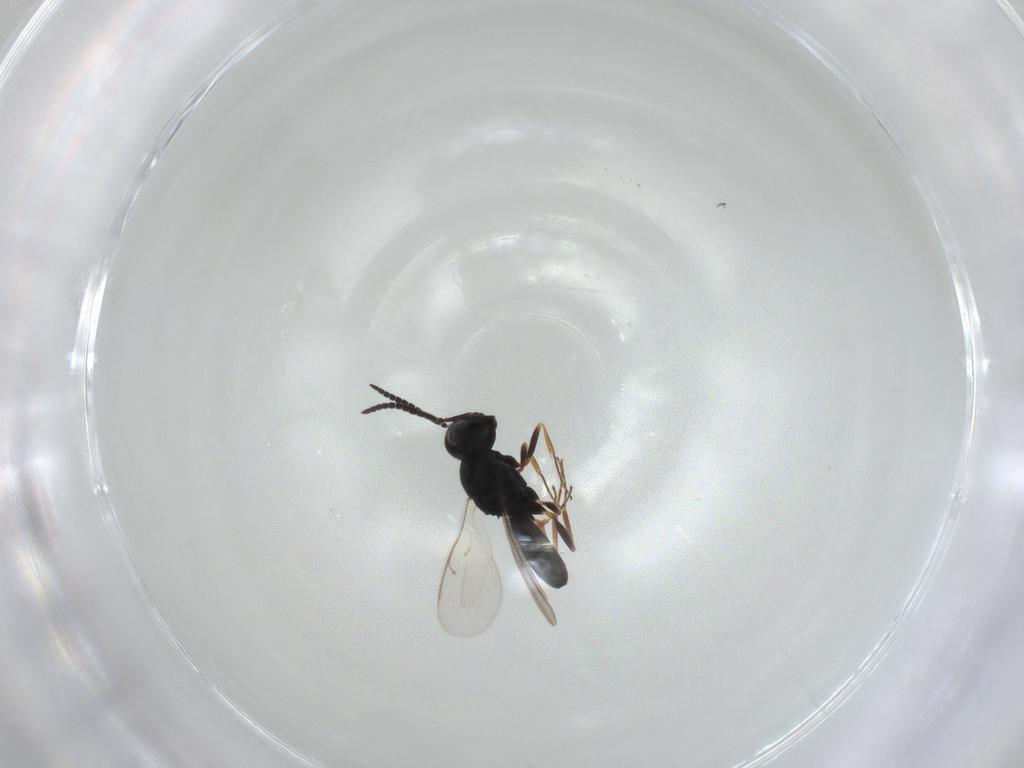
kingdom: Animalia
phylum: Arthropoda
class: Insecta
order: Hymenoptera
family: Scelionidae
